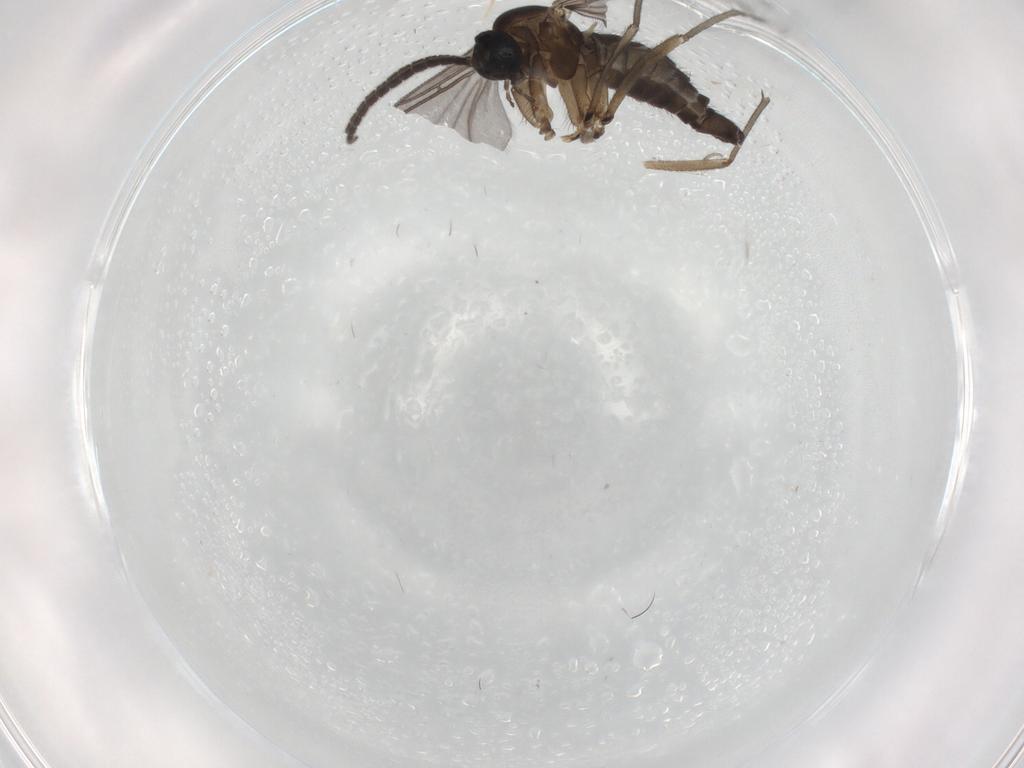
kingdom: Animalia
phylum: Arthropoda
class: Insecta
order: Diptera
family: Sciaridae
